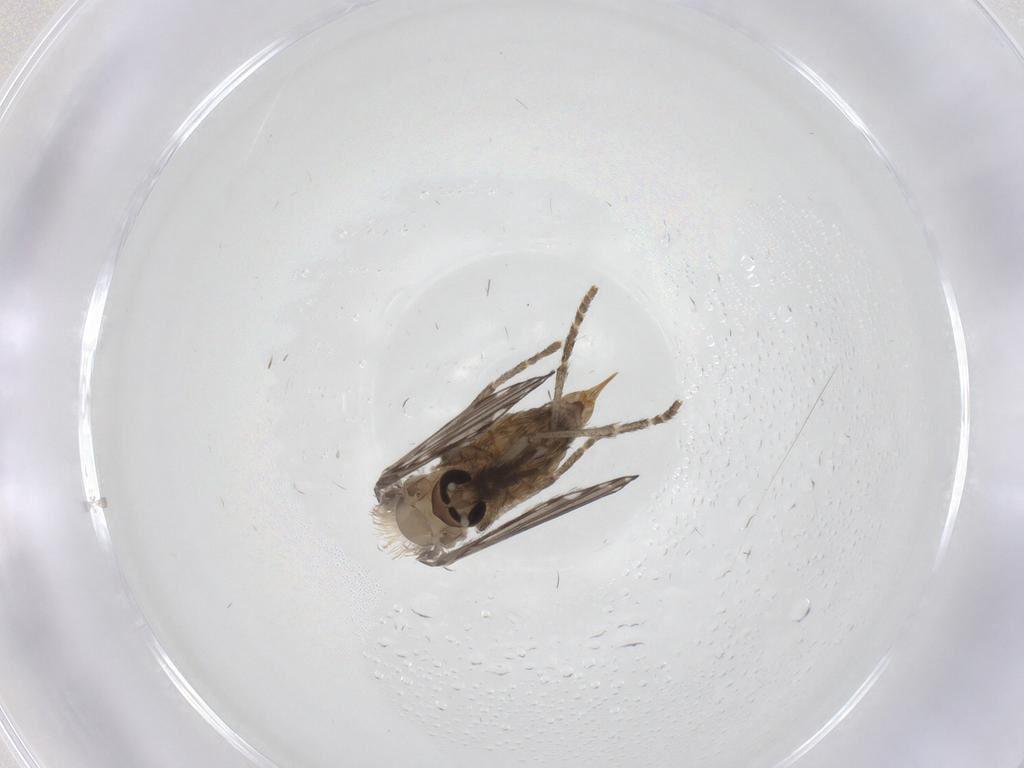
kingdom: Animalia
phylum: Arthropoda
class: Insecta
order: Diptera
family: Psychodidae
